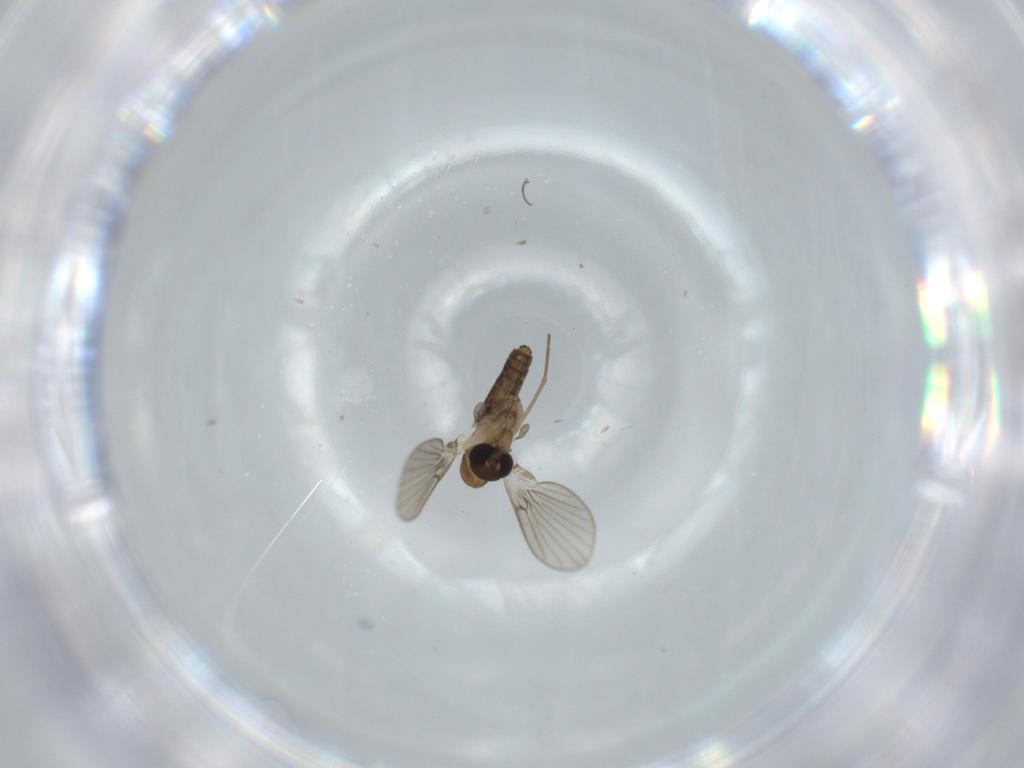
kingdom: Animalia
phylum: Arthropoda
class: Insecta
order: Diptera
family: Psychodidae
